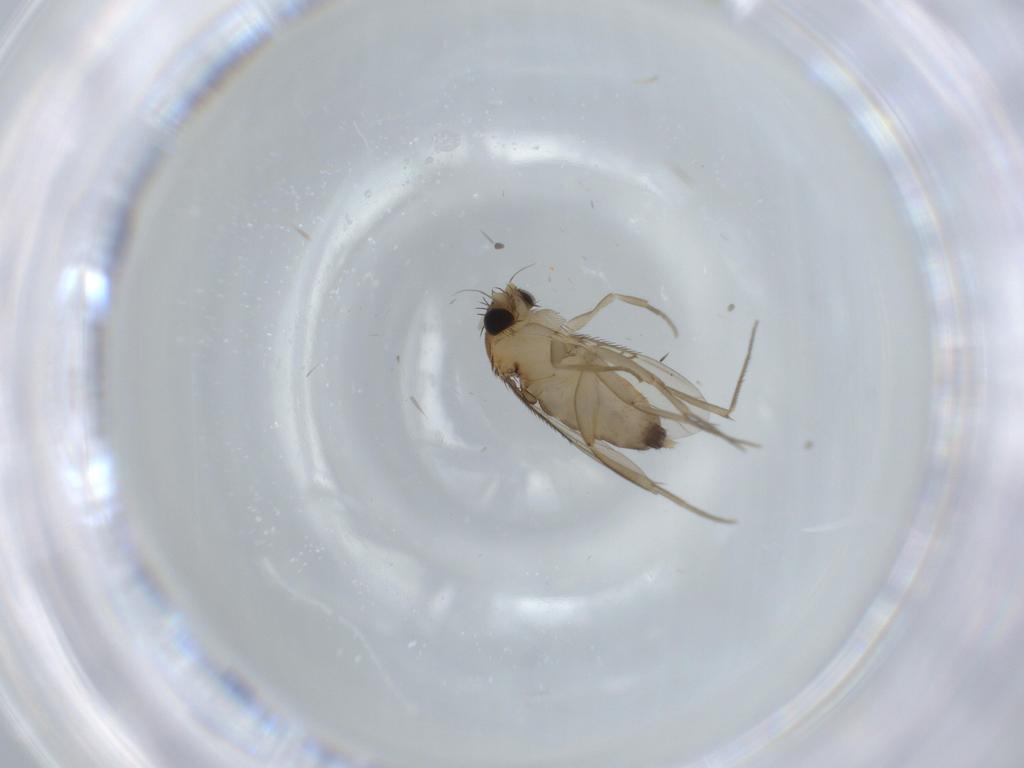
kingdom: Animalia
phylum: Arthropoda
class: Insecta
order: Diptera
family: Phoridae
